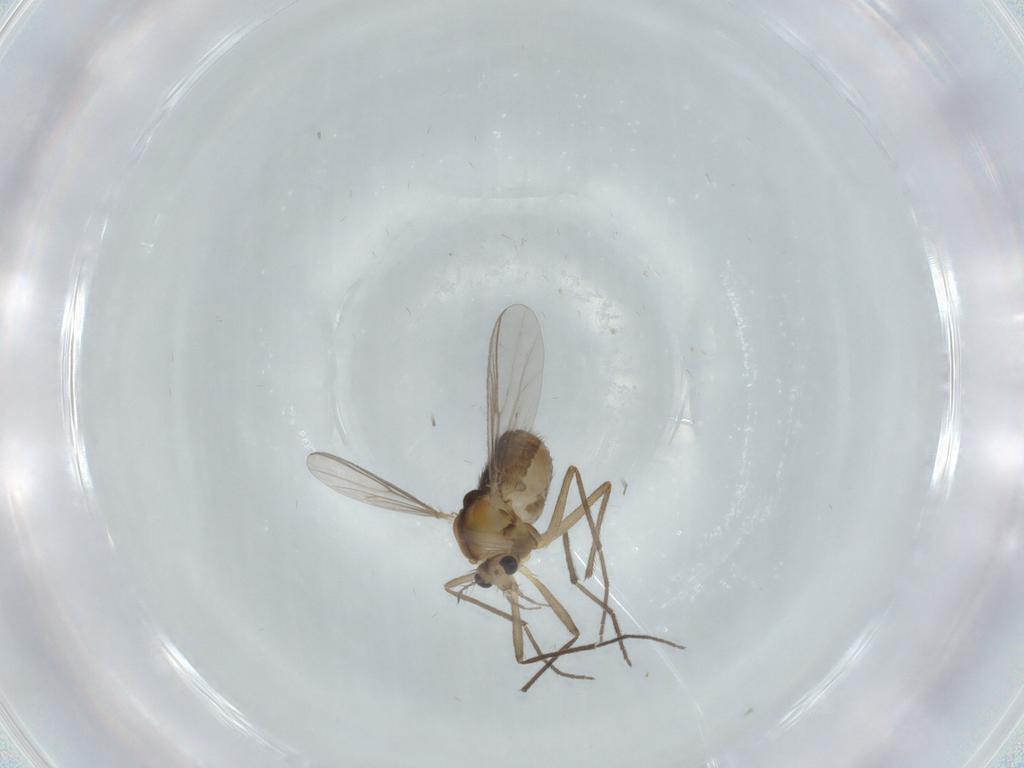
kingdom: Animalia
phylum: Arthropoda
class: Insecta
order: Diptera
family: Chironomidae
